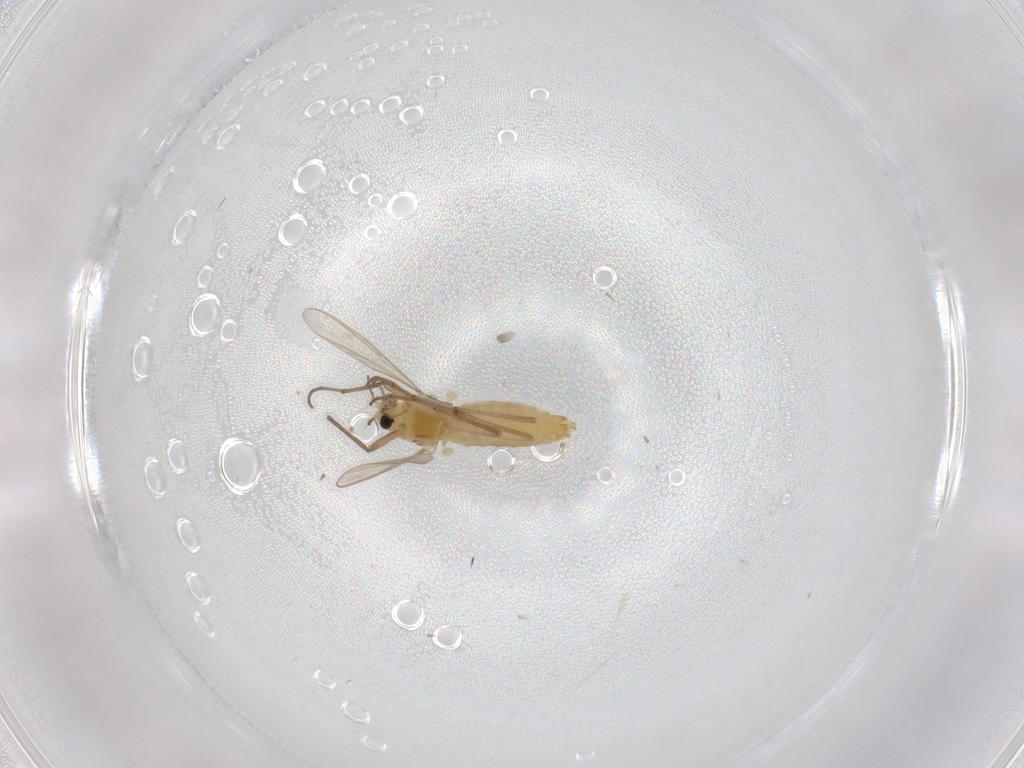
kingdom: Animalia
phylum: Arthropoda
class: Insecta
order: Diptera
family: Chironomidae
